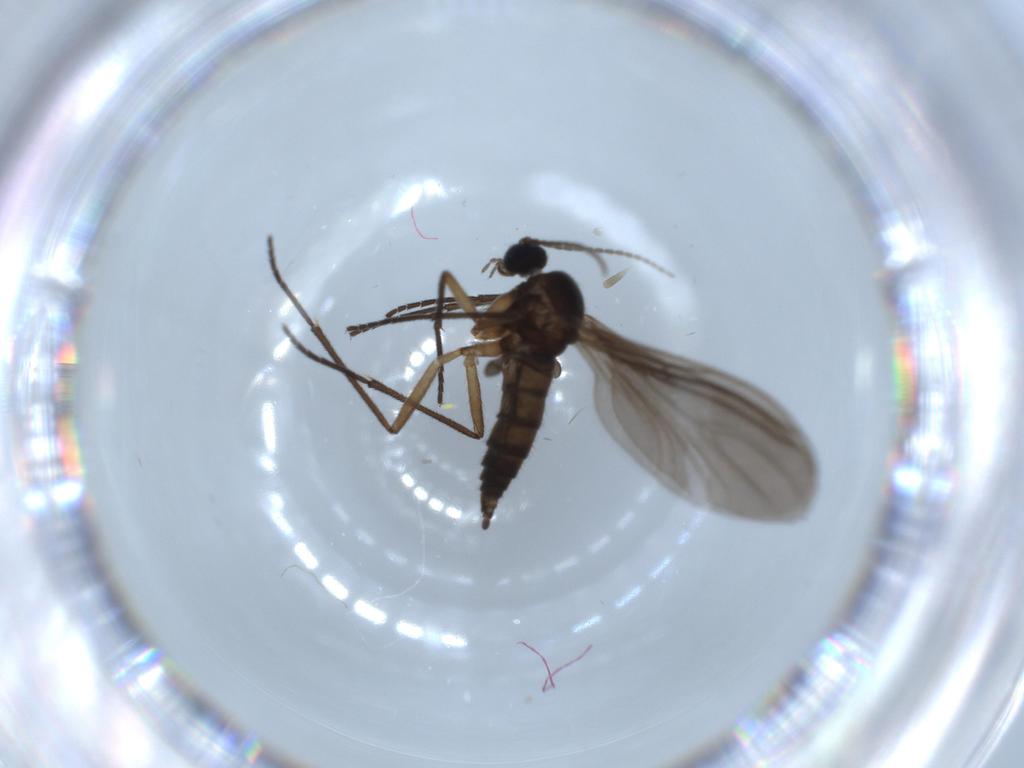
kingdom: Animalia
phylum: Arthropoda
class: Insecta
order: Diptera
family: Sciaridae
